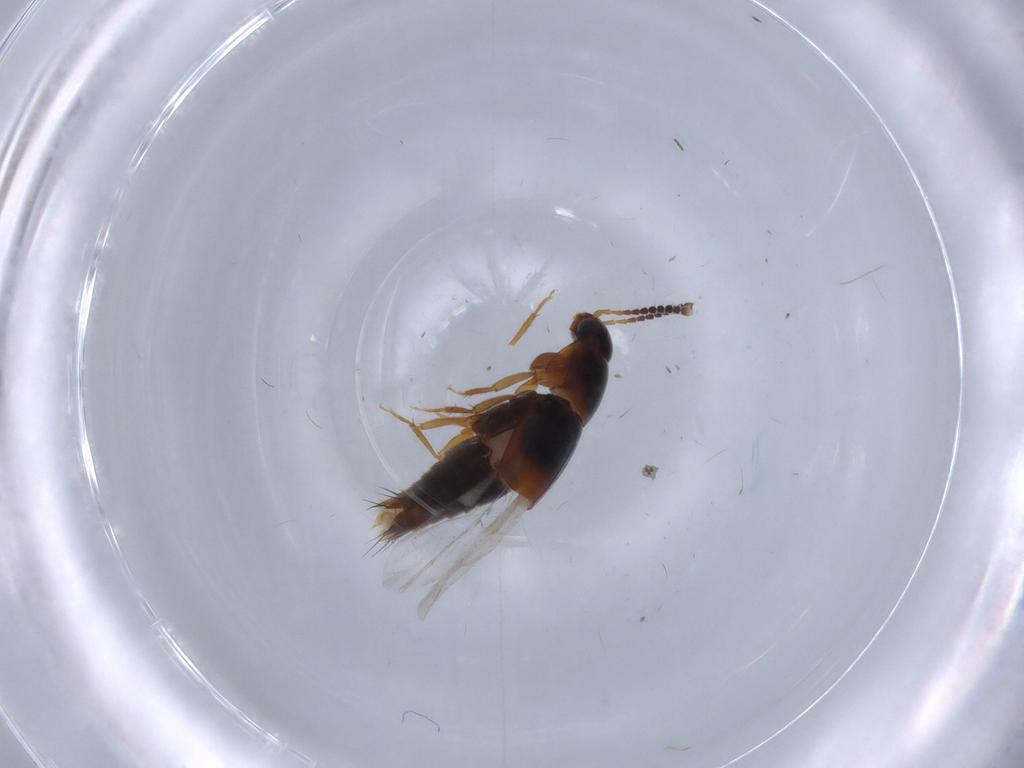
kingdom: Animalia
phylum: Arthropoda
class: Insecta
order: Coleoptera
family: Staphylinidae
